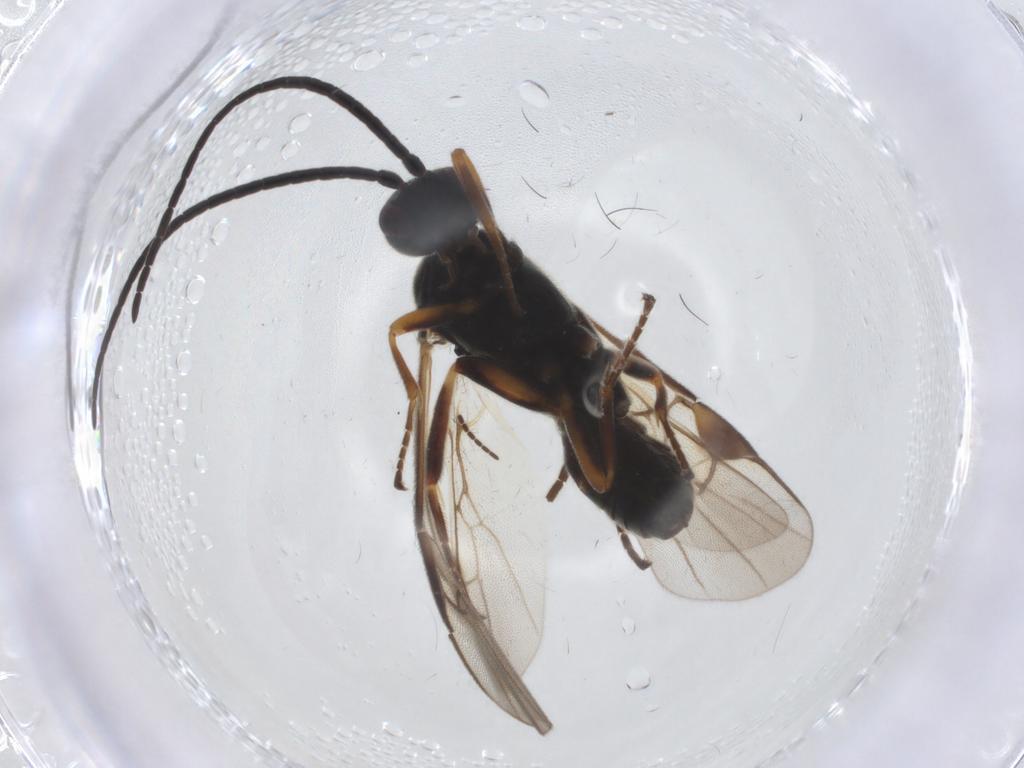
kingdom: Animalia
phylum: Arthropoda
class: Insecta
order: Hymenoptera
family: Braconidae
